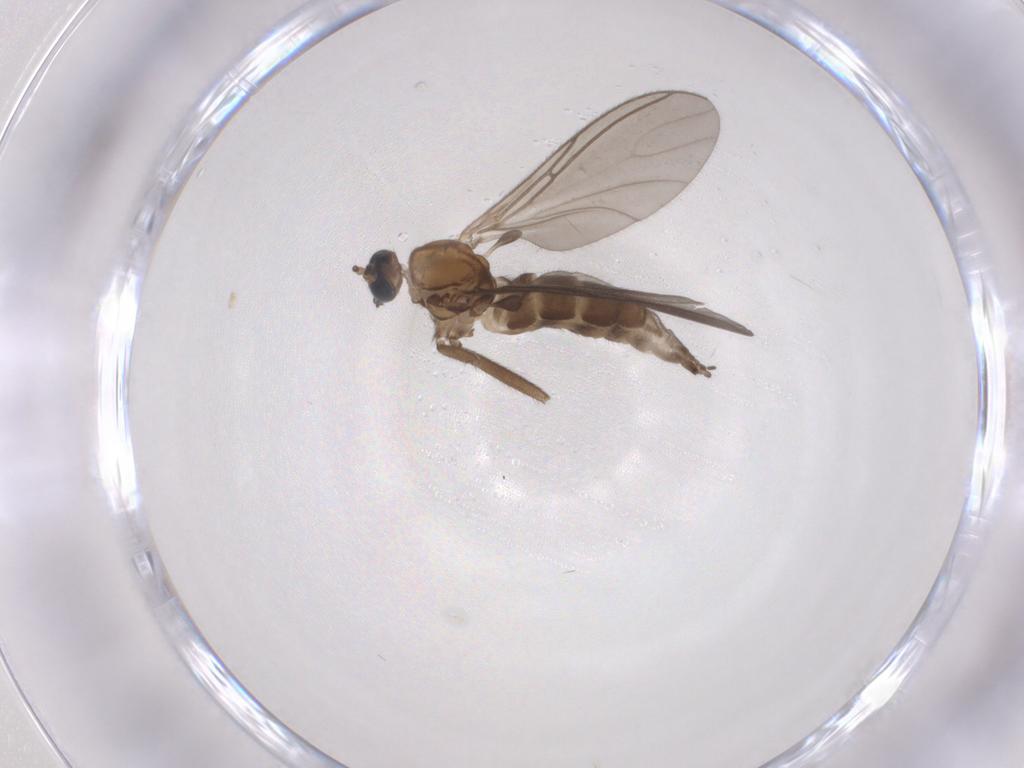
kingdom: Animalia
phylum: Arthropoda
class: Insecta
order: Diptera
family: Sciaridae
